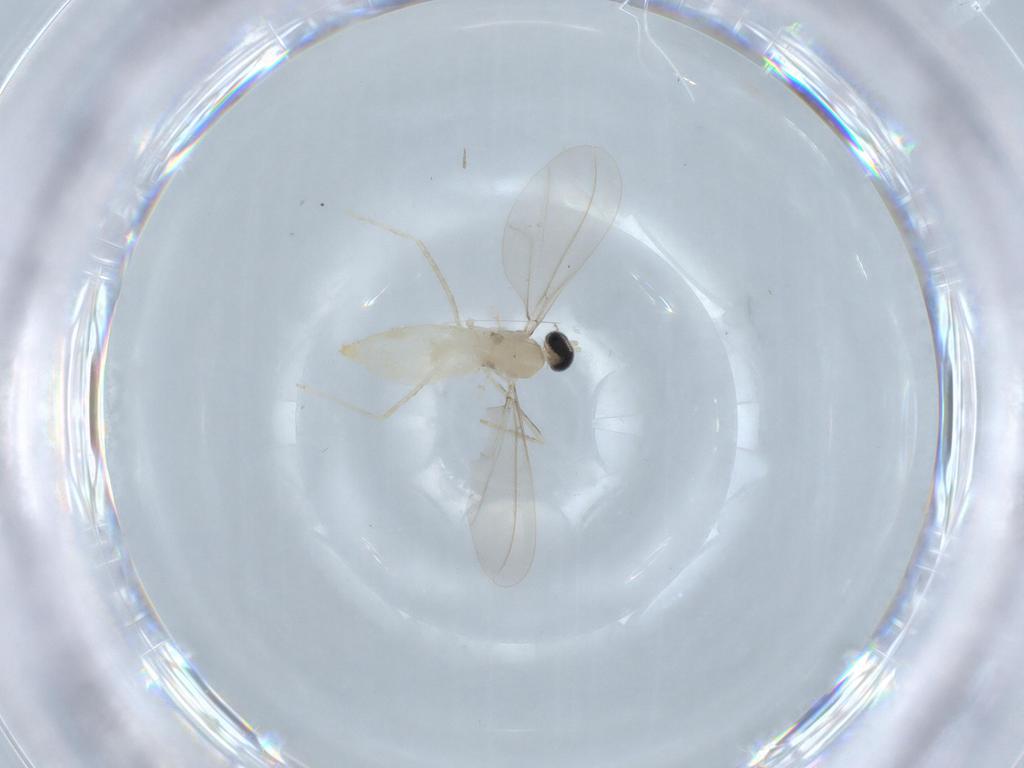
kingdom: Animalia
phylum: Arthropoda
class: Insecta
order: Diptera
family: Cecidomyiidae
